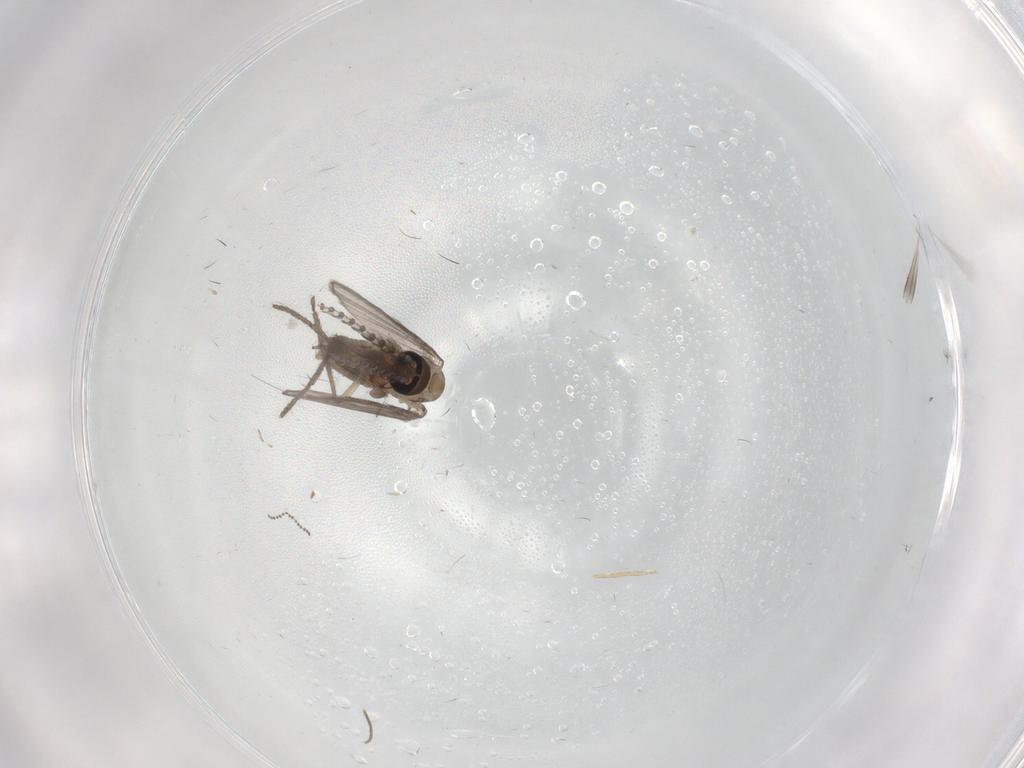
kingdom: Animalia
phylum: Arthropoda
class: Insecta
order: Diptera
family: Psychodidae
